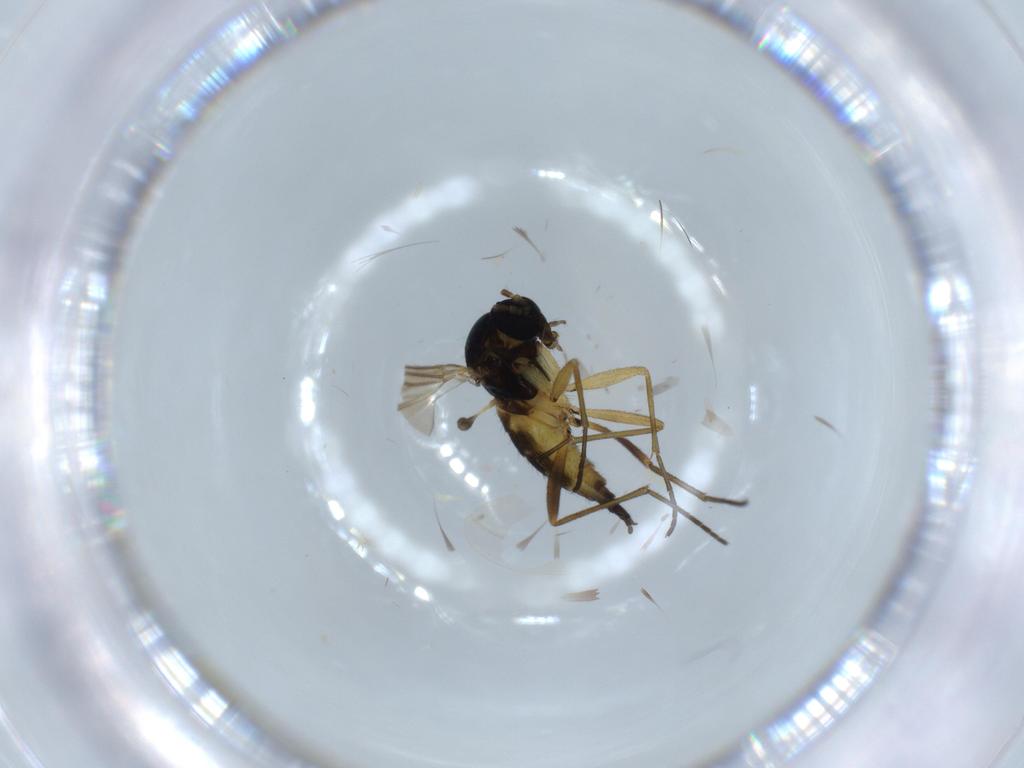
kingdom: Animalia
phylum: Arthropoda
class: Insecta
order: Diptera
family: Sciaridae
